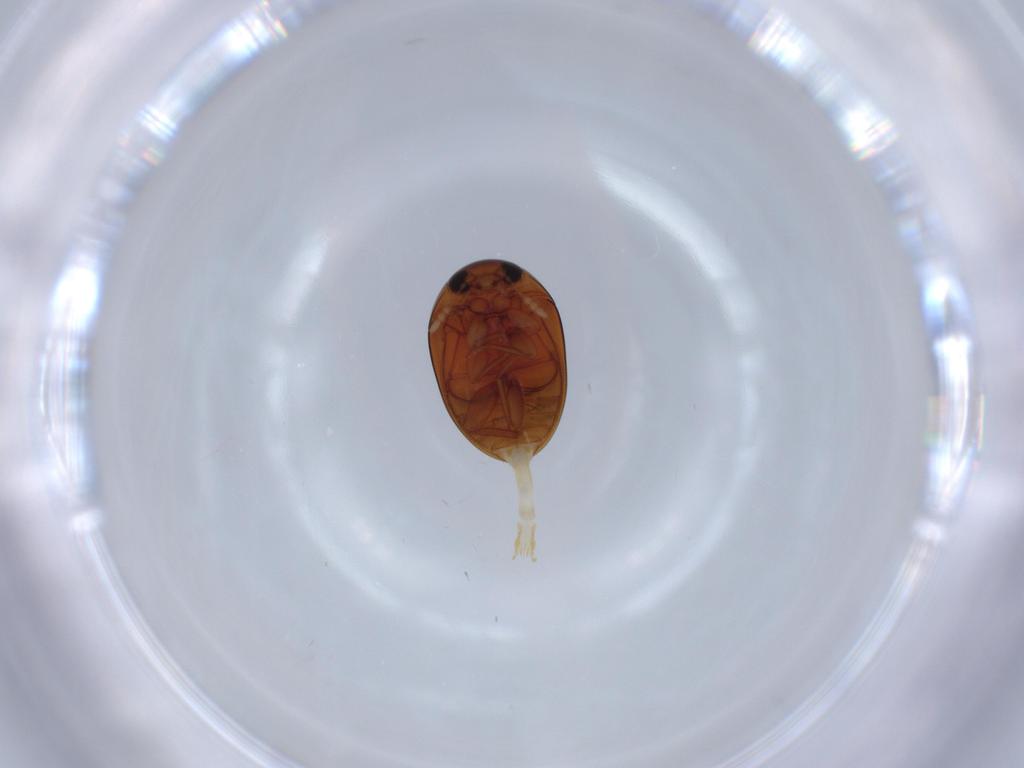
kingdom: Animalia
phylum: Arthropoda
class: Insecta
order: Coleoptera
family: Phalacridae
